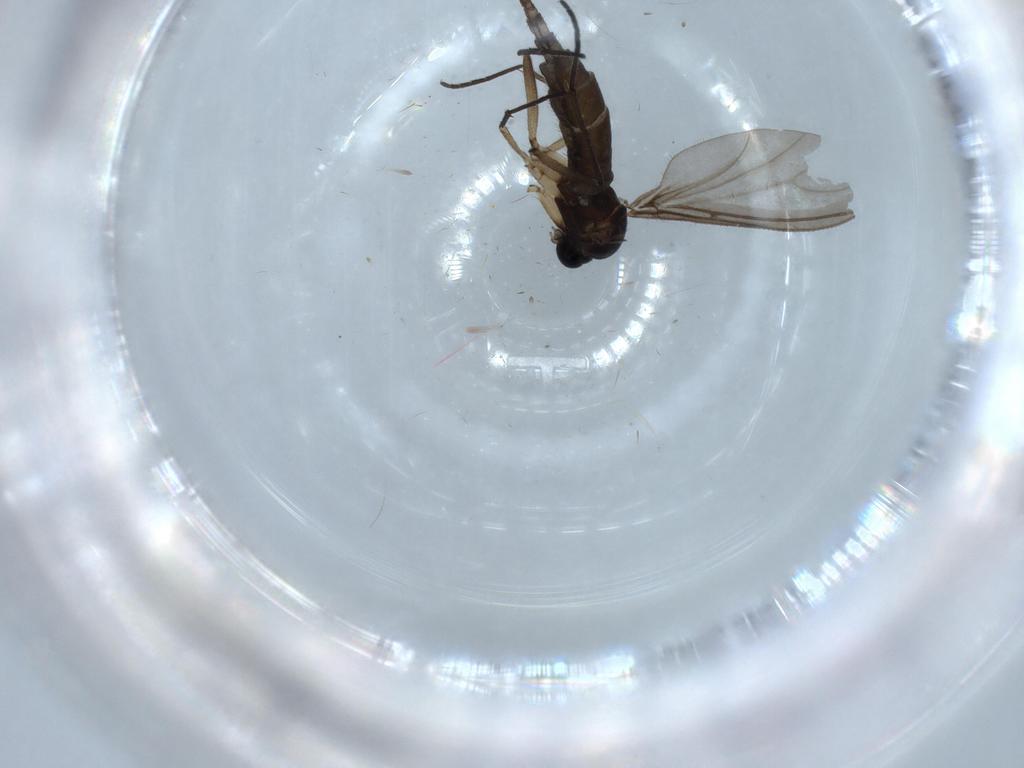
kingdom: Animalia
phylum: Arthropoda
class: Insecta
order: Diptera
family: Sciaridae
